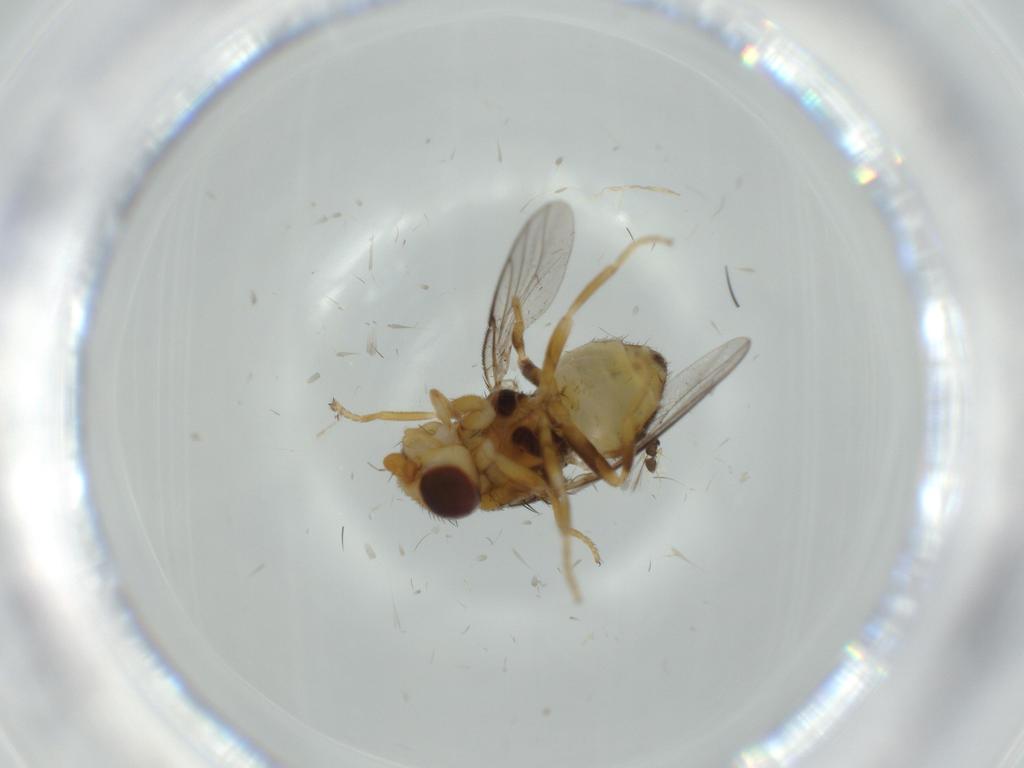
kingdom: Animalia
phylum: Arthropoda
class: Insecta
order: Diptera
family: Chloropidae
